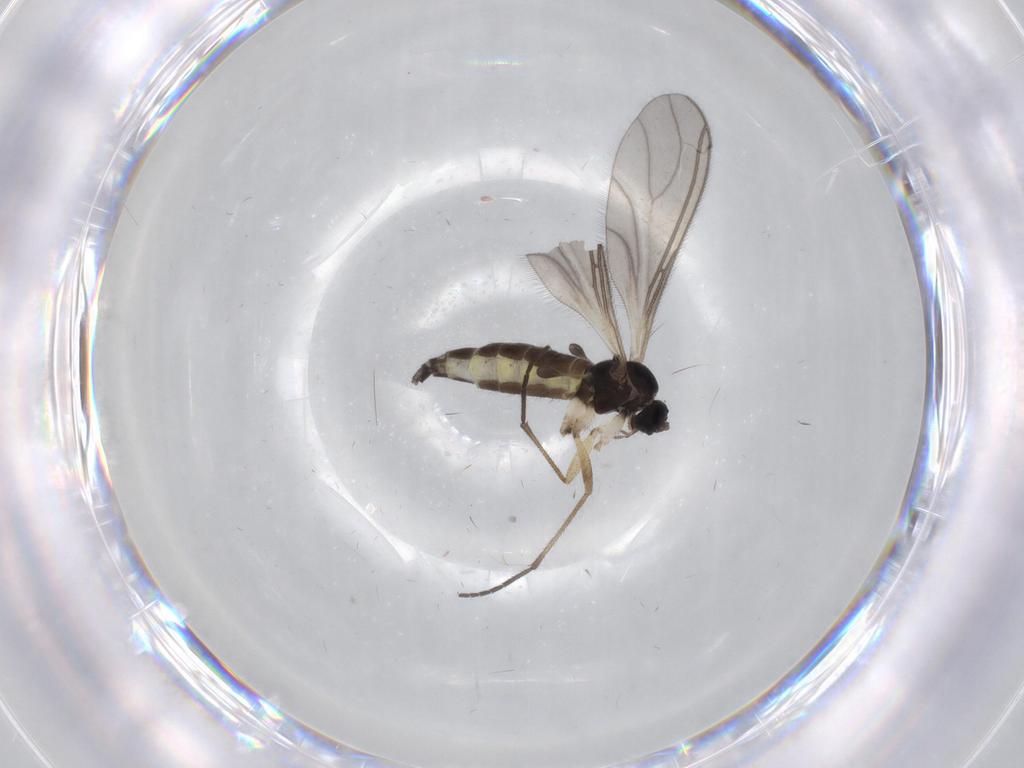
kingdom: Animalia
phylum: Arthropoda
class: Insecta
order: Diptera
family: Sciaridae
